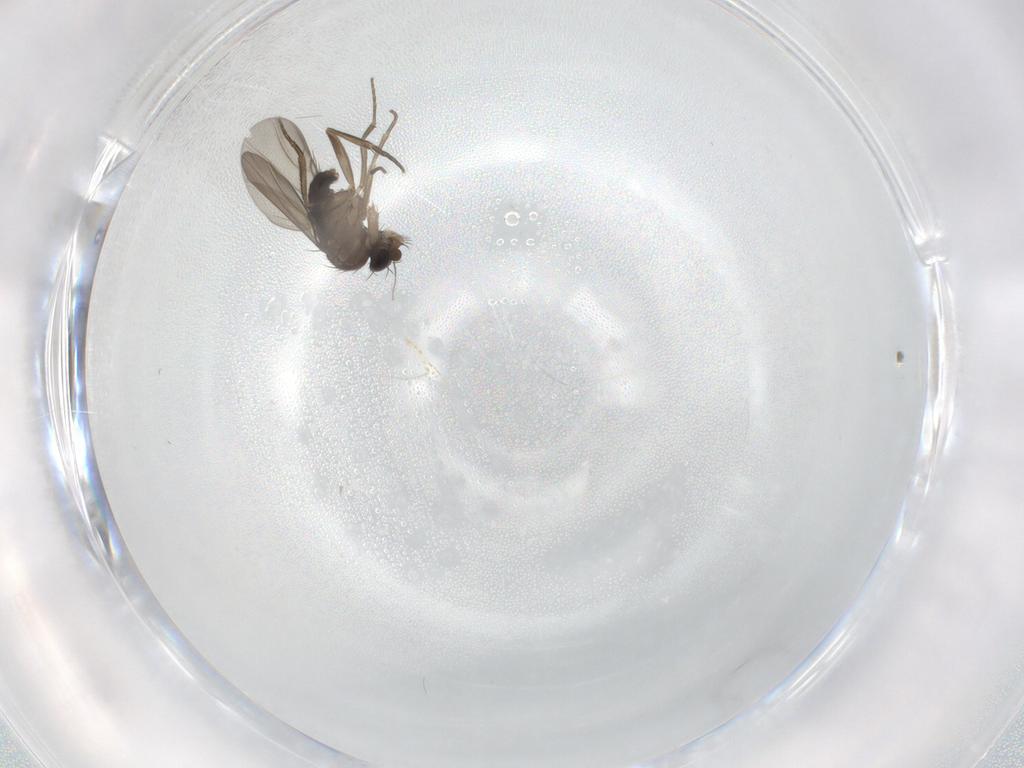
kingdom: Animalia
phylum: Arthropoda
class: Insecta
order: Diptera
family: Phoridae
